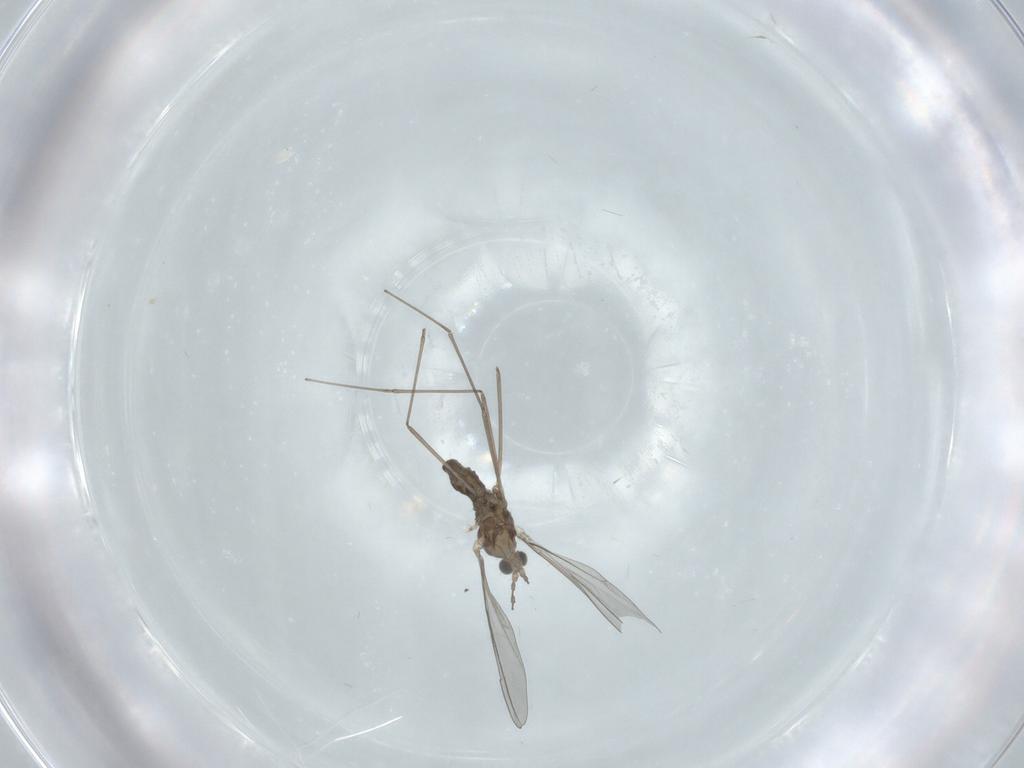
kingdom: Animalia
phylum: Arthropoda
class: Insecta
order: Diptera
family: Cecidomyiidae
